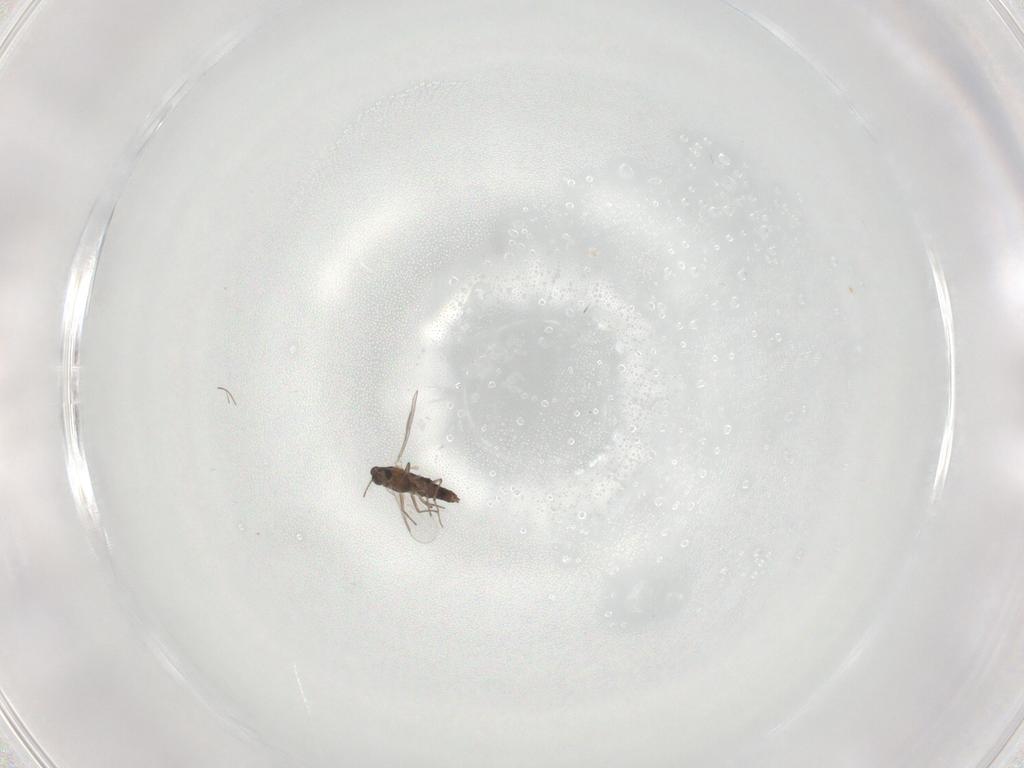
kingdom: Animalia
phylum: Arthropoda
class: Insecta
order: Diptera
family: Chironomidae
